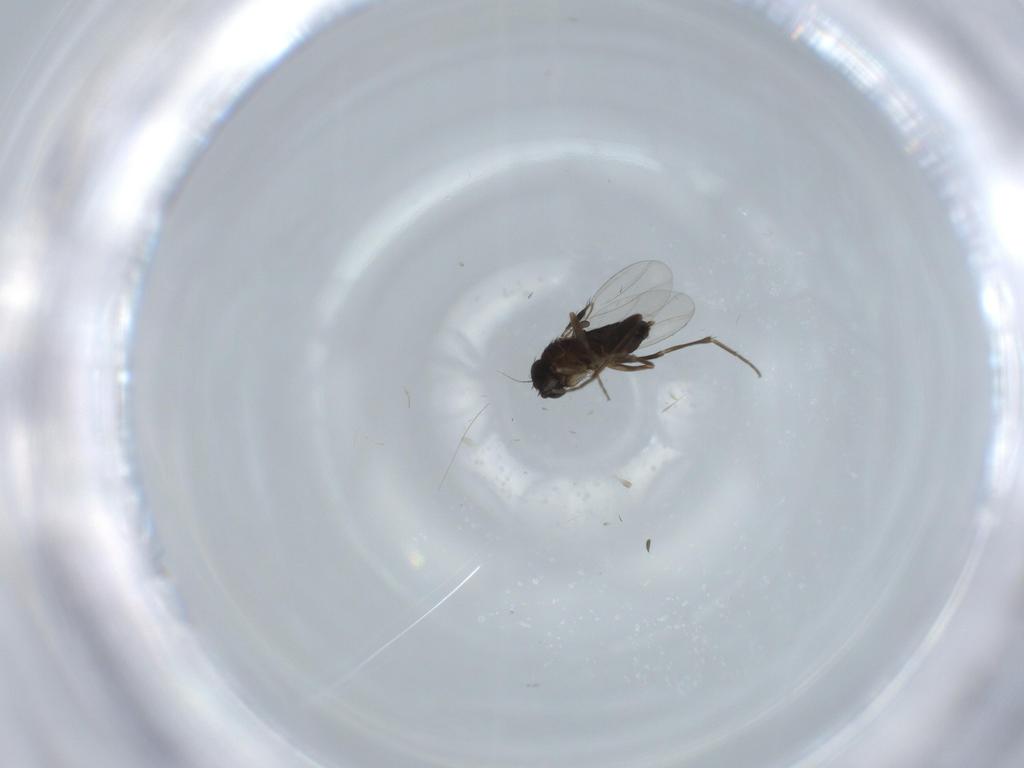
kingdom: Animalia
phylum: Arthropoda
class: Insecta
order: Diptera
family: Phoridae
